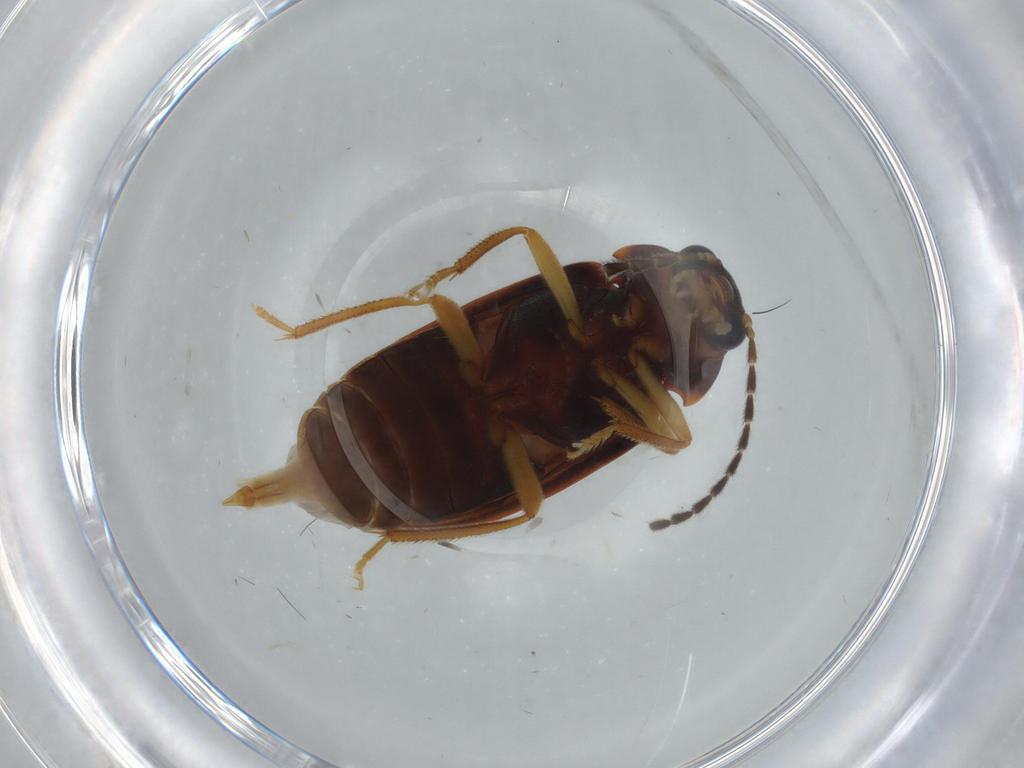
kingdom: Animalia
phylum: Arthropoda
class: Insecta
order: Coleoptera
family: Ptilodactylidae
